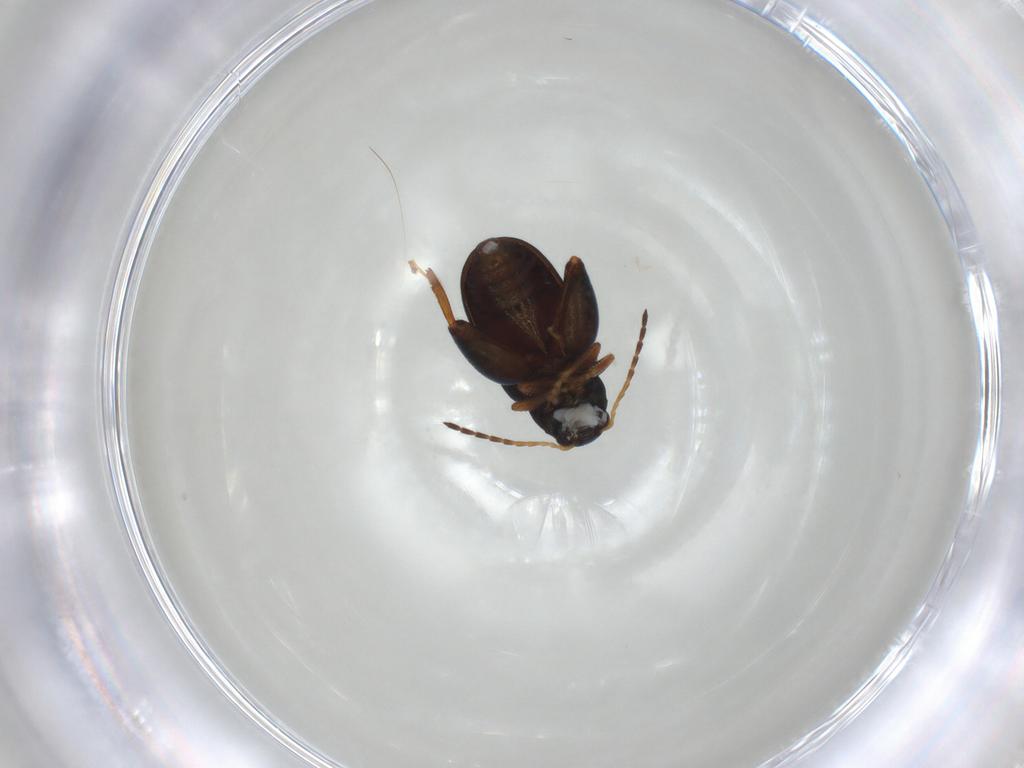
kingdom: Animalia
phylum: Arthropoda
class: Insecta
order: Coleoptera
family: Chrysomelidae
